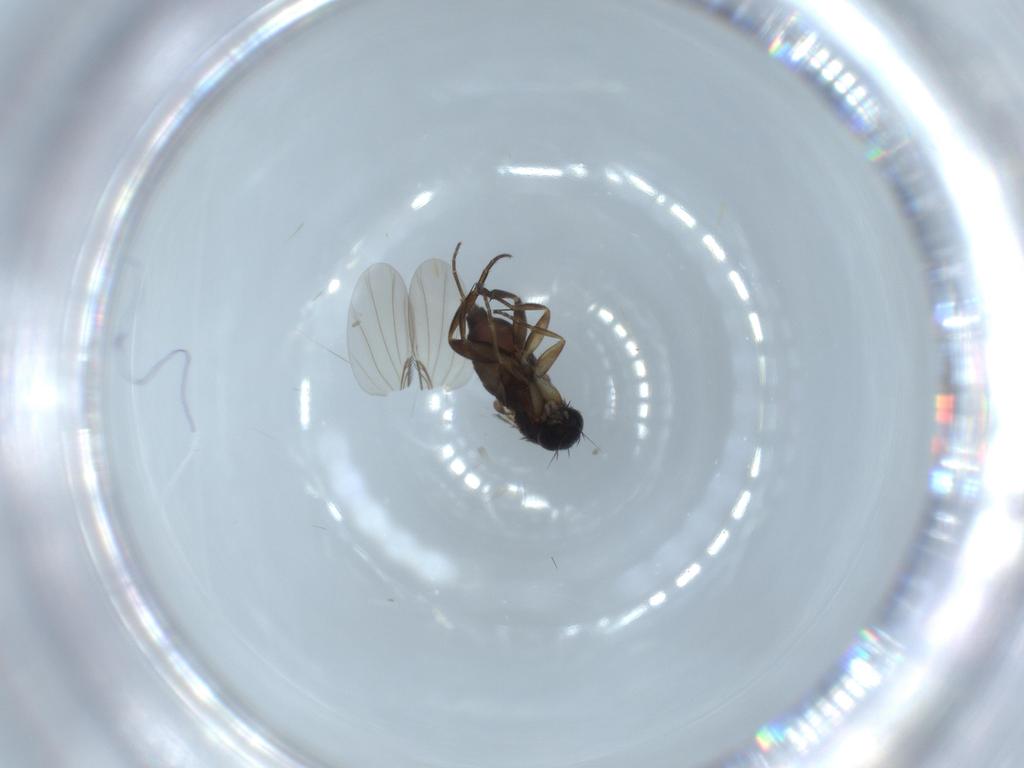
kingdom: Animalia
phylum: Arthropoda
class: Insecta
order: Diptera
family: Phoridae
